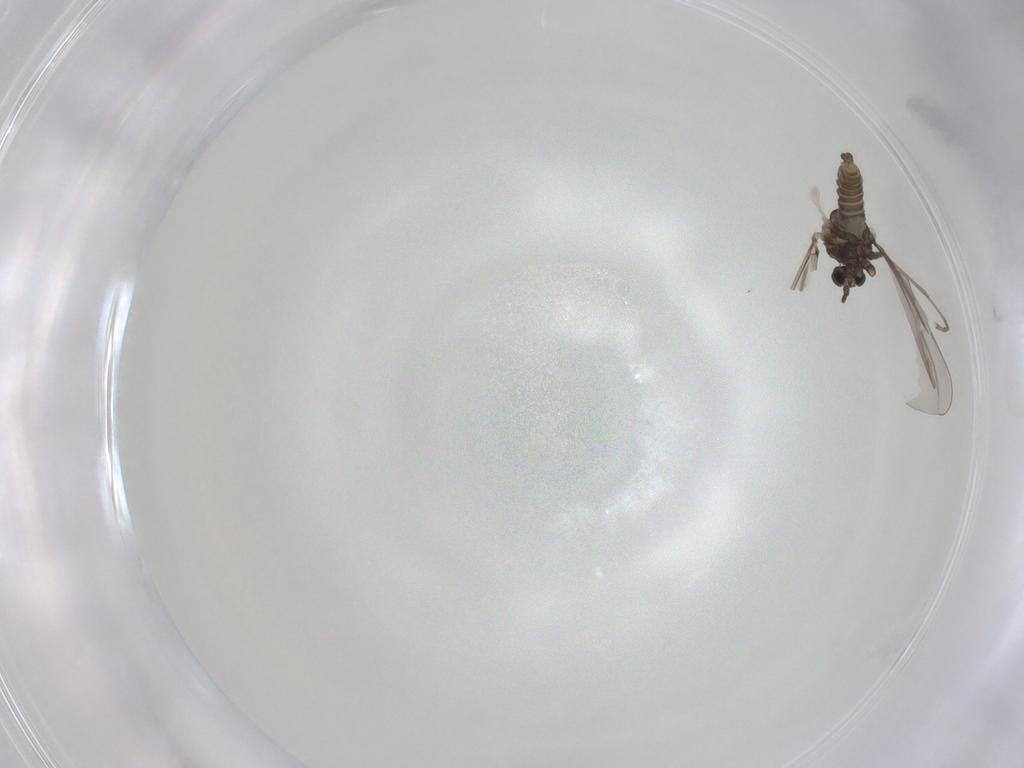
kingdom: Animalia
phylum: Arthropoda
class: Insecta
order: Diptera
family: Cecidomyiidae
